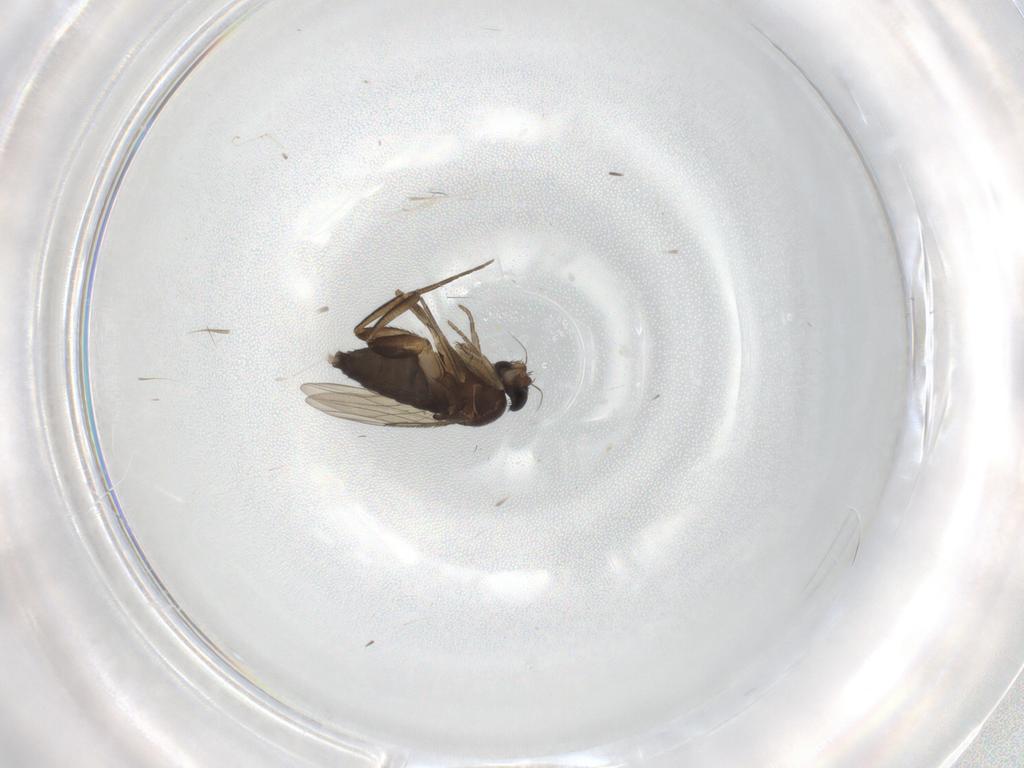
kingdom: Animalia
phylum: Arthropoda
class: Insecta
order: Diptera
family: Phoridae
